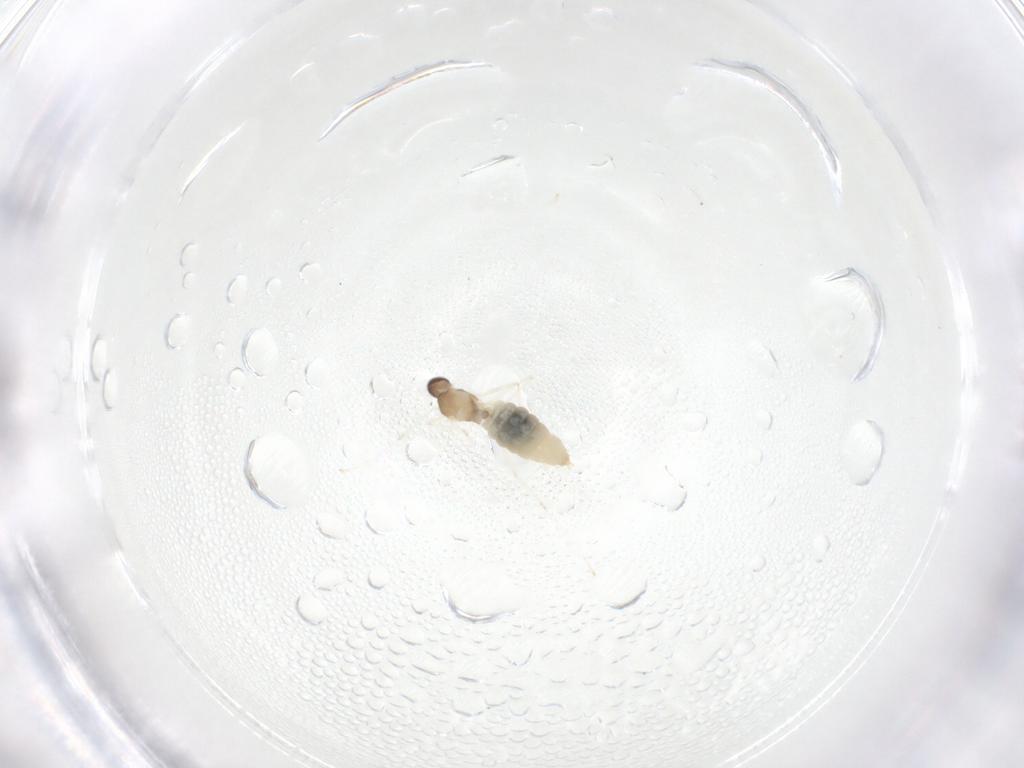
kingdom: Animalia
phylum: Arthropoda
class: Insecta
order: Diptera
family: Cecidomyiidae
